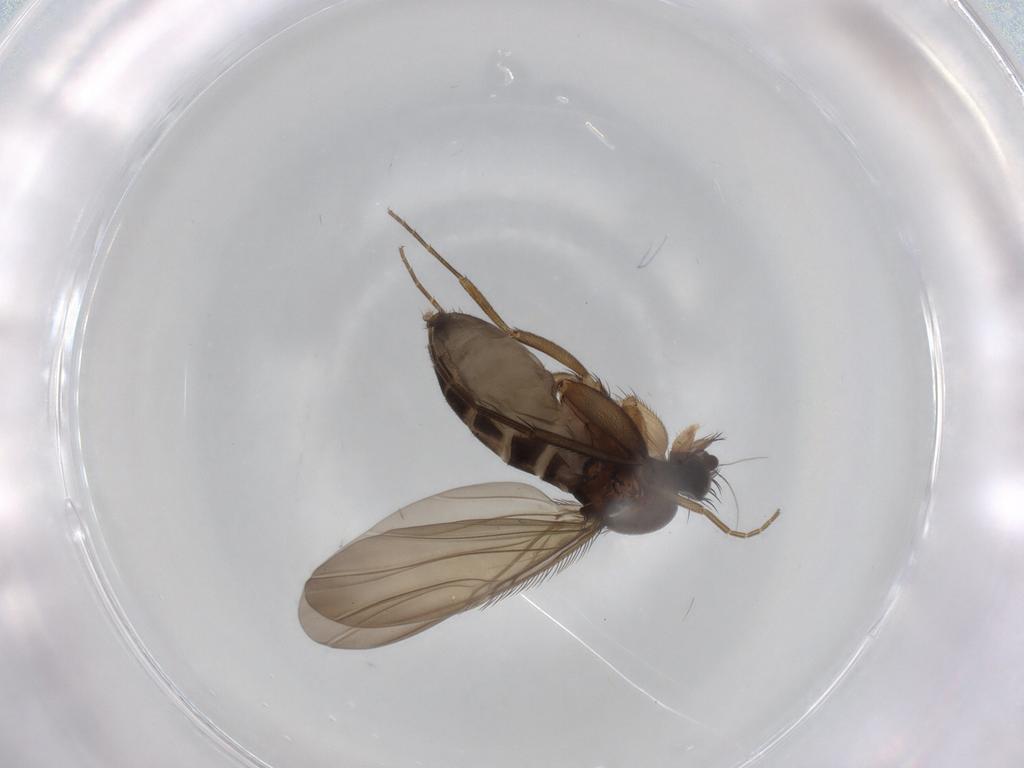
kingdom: Animalia
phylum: Arthropoda
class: Insecta
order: Diptera
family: Phoridae
